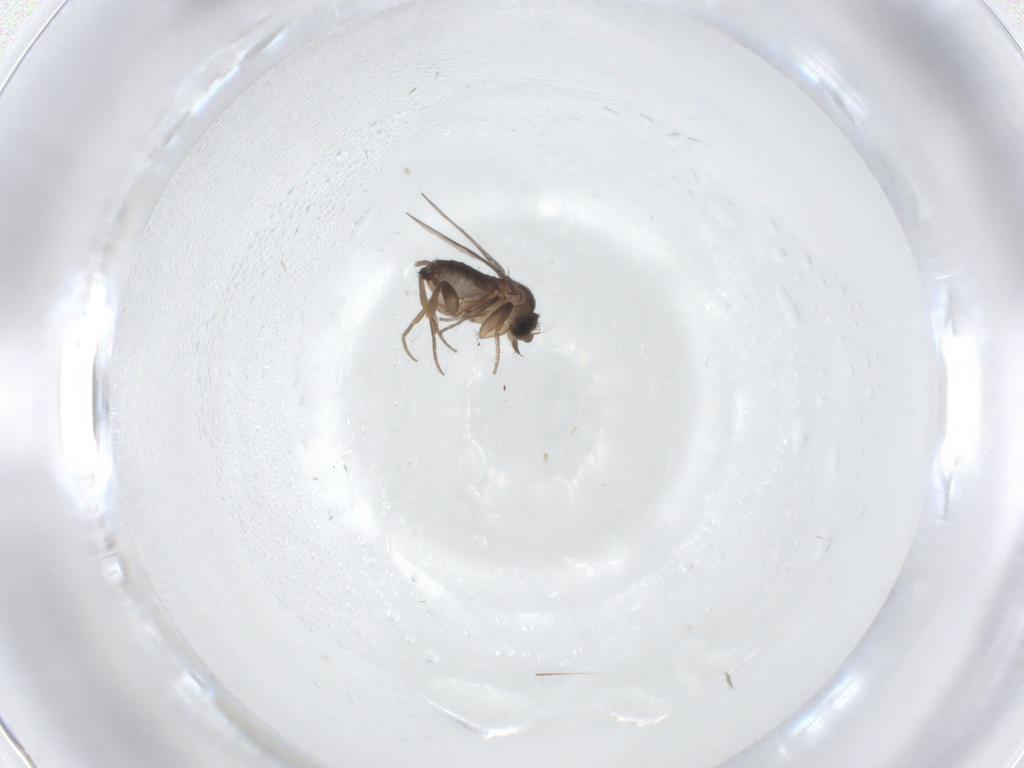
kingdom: Animalia
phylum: Arthropoda
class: Insecta
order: Diptera
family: Phoridae
